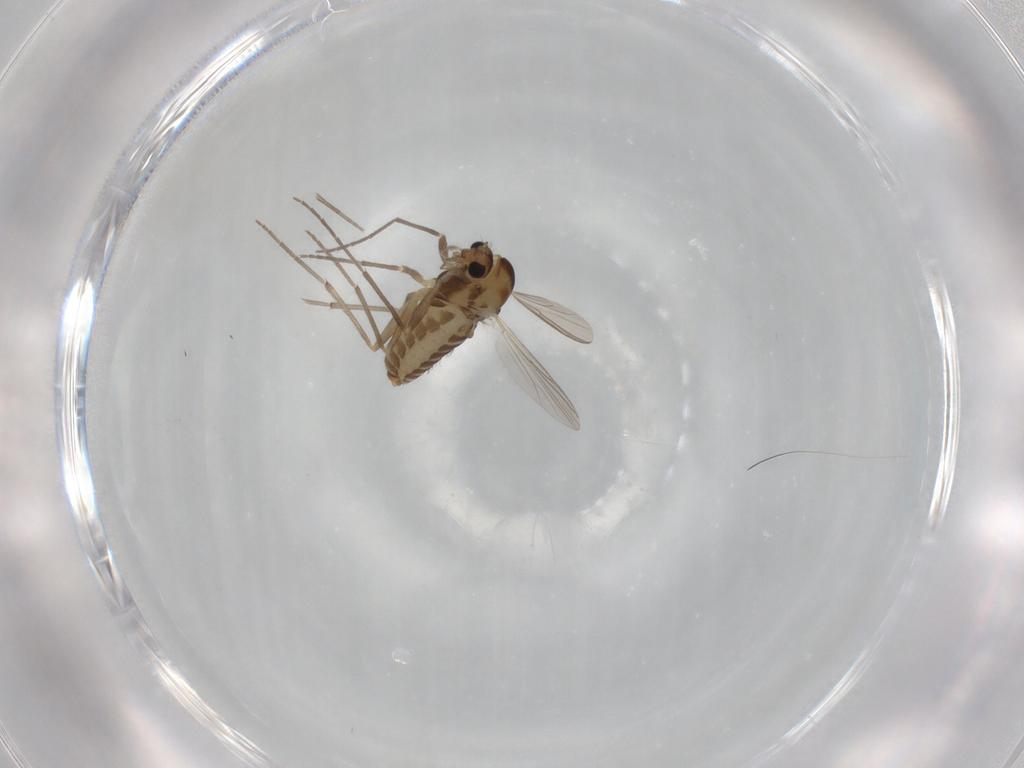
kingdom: Animalia
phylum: Arthropoda
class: Insecta
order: Diptera
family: Chironomidae
